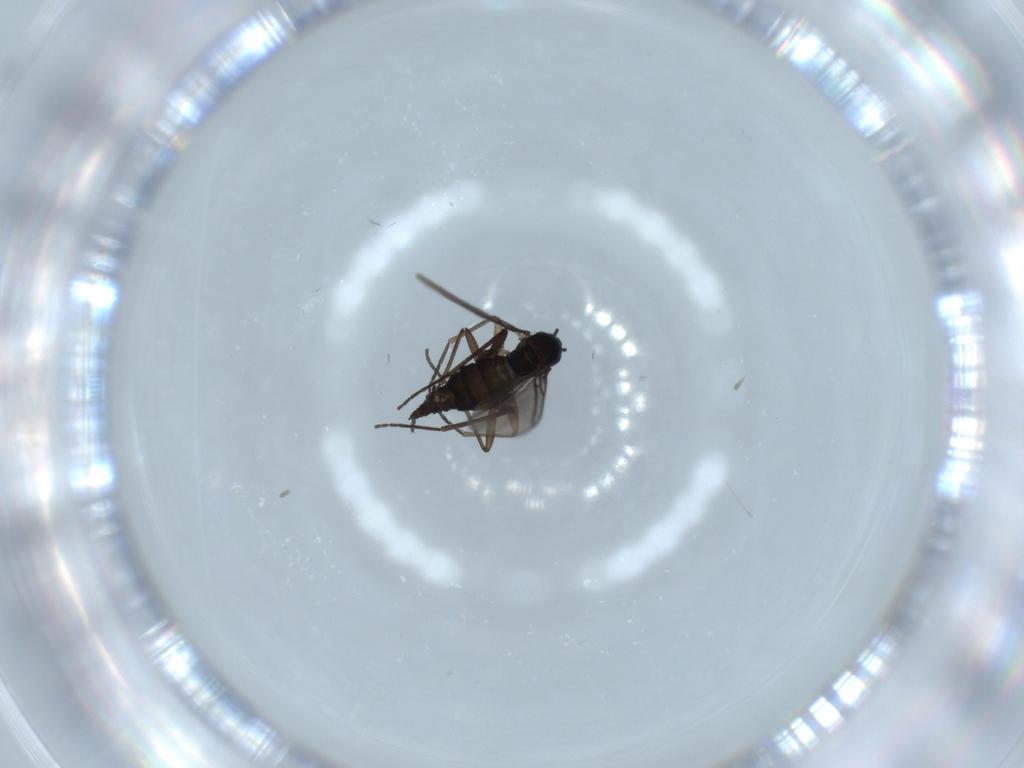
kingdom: Animalia
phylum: Arthropoda
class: Insecta
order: Diptera
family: Sciaridae
